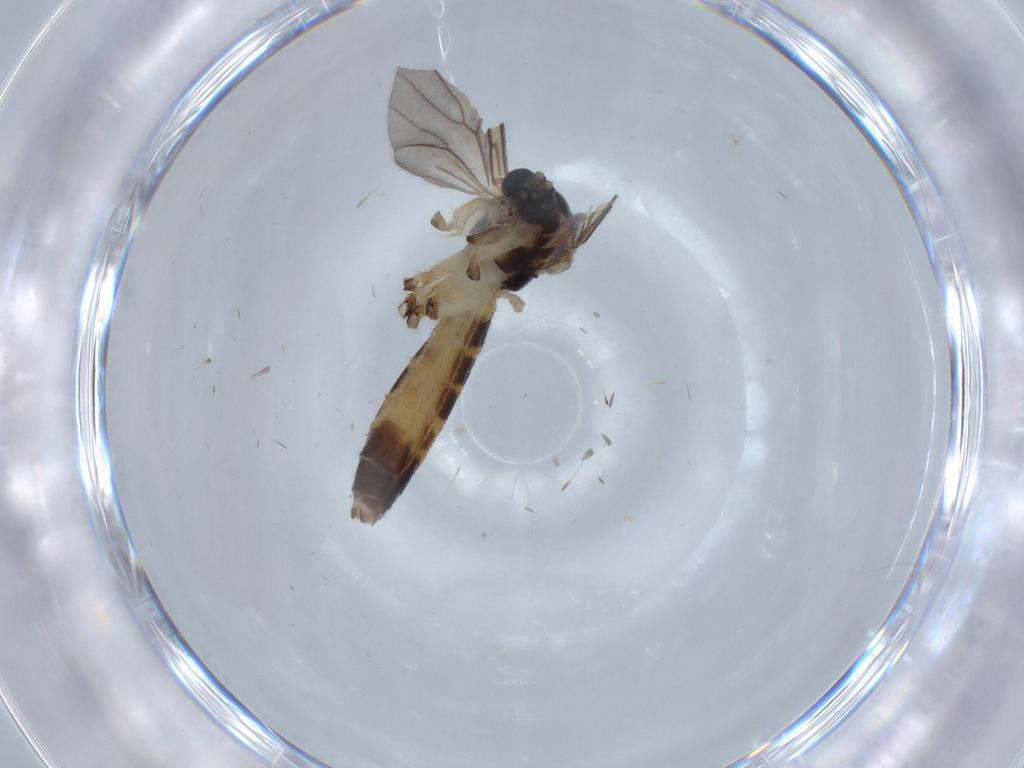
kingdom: Animalia
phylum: Arthropoda
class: Insecta
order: Diptera
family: Mycetophilidae
